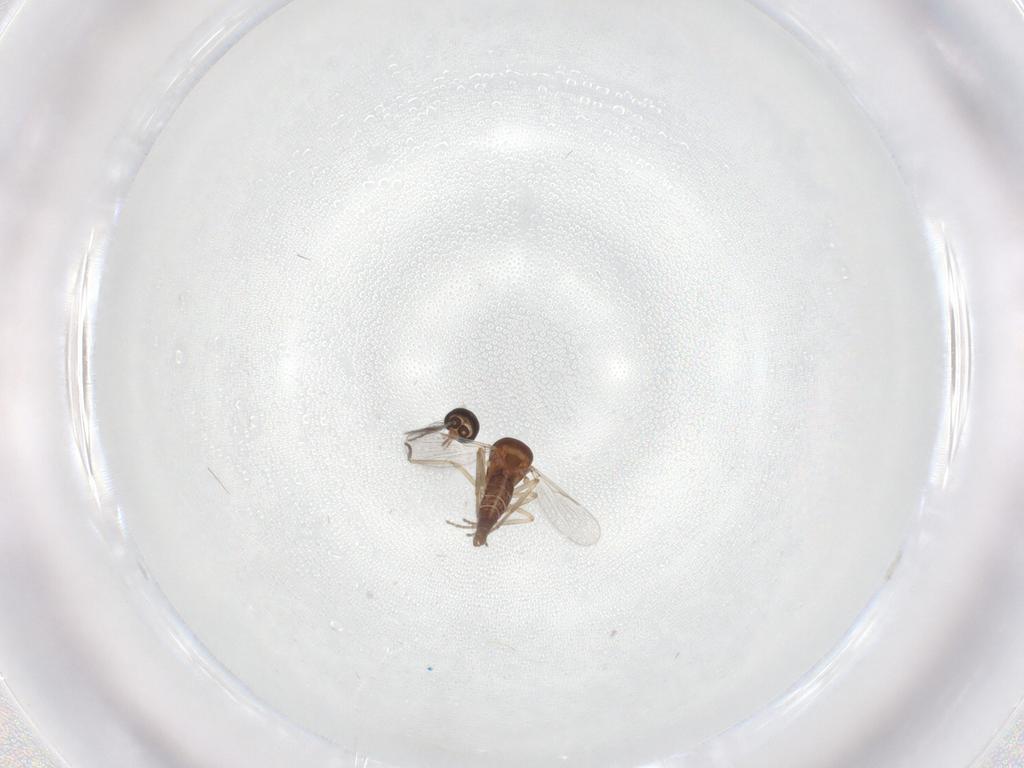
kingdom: Animalia
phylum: Arthropoda
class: Insecta
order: Diptera
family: Ceratopogonidae
